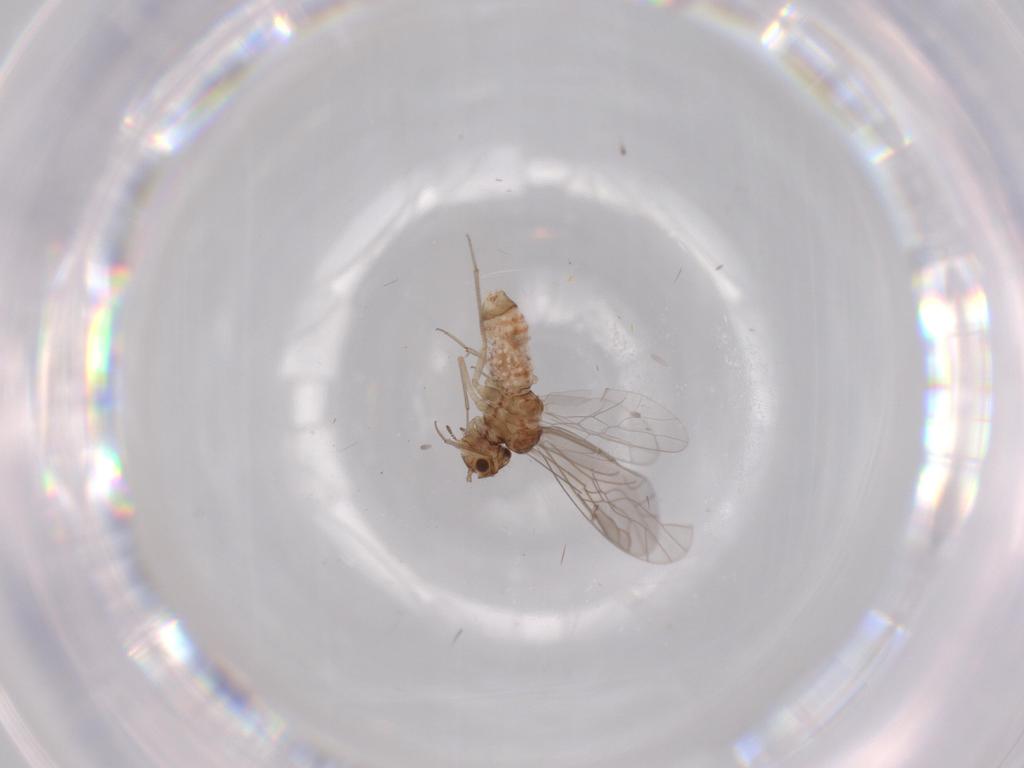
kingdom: Animalia
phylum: Arthropoda
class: Insecta
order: Psocodea
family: Lachesillidae
